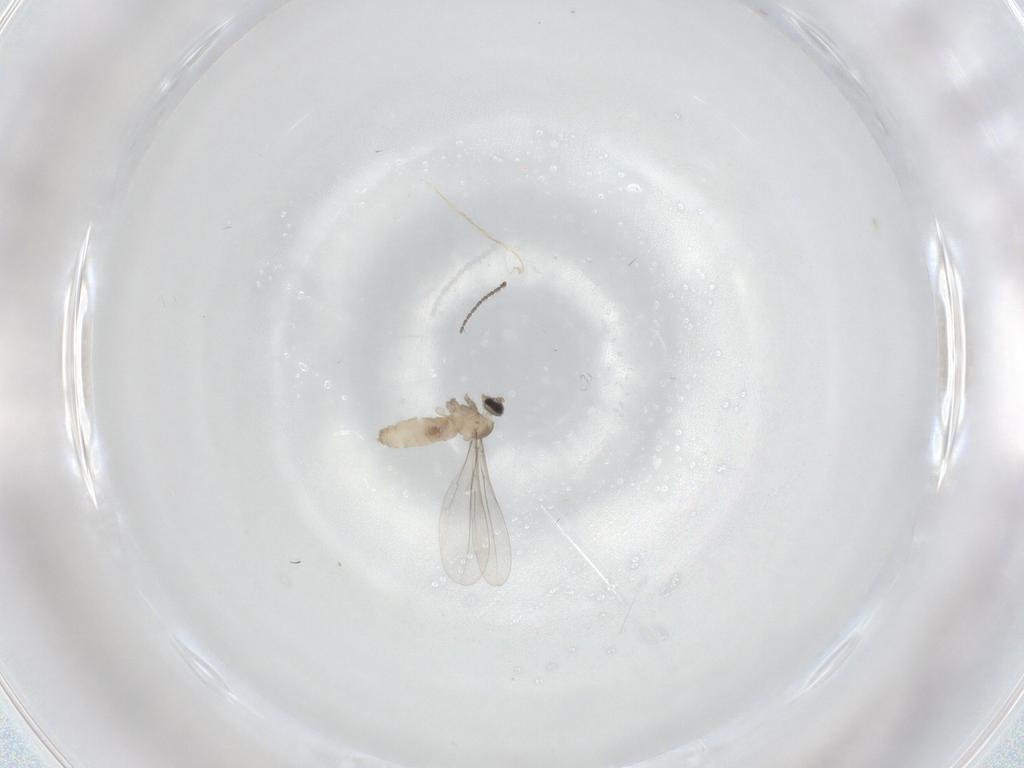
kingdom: Animalia
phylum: Arthropoda
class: Insecta
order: Diptera
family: Cecidomyiidae
